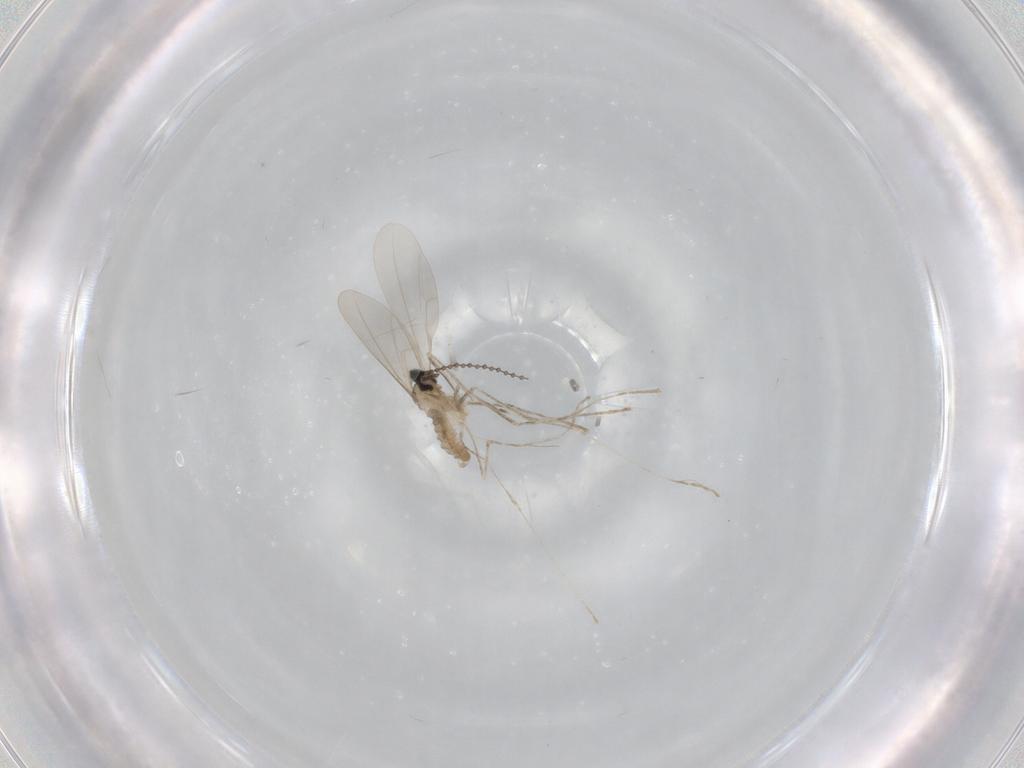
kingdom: Animalia
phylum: Arthropoda
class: Insecta
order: Diptera
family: Cecidomyiidae
